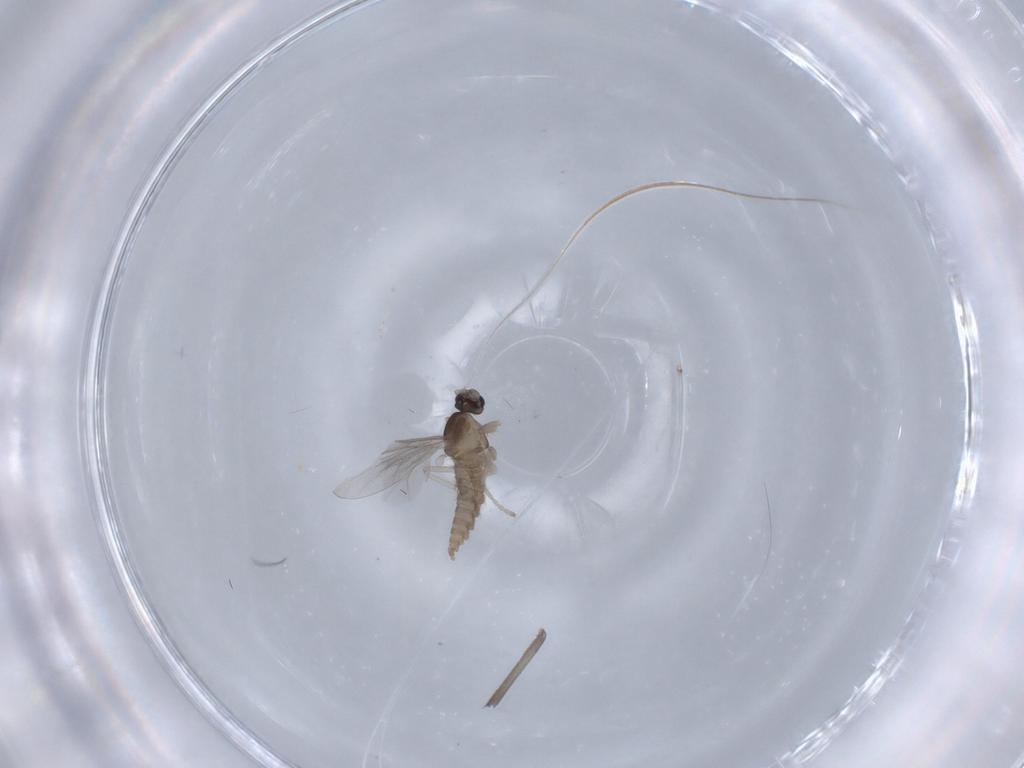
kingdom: Animalia
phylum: Arthropoda
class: Insecta
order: Diptera
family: Cecidomyiidae
